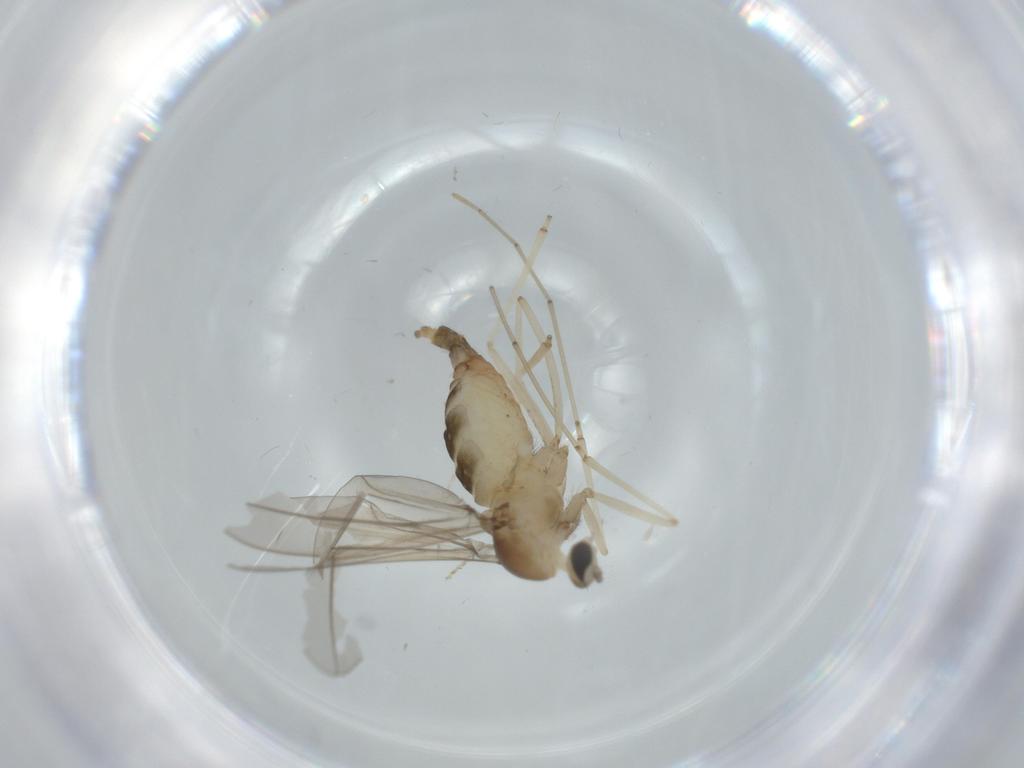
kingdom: Animalia
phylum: Arthropoda
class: Insecta
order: Diptera
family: Cecidomyiidae
